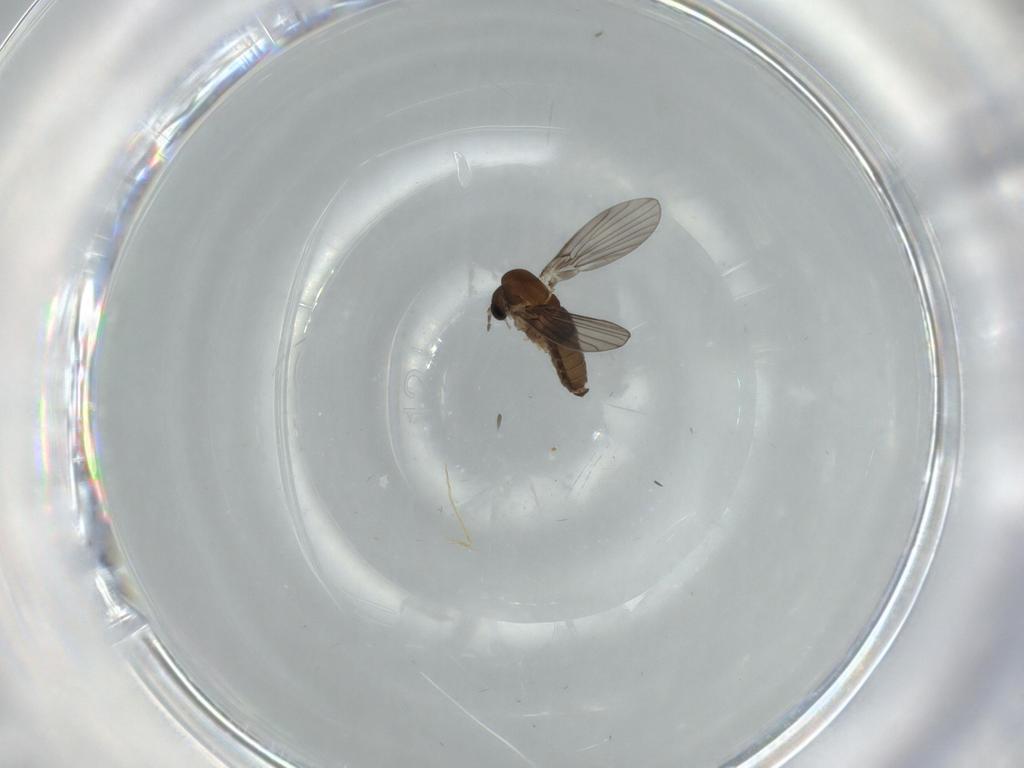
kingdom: Animalia
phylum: Arthropoda
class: Insecta
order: Diptera
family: Psychodidae
